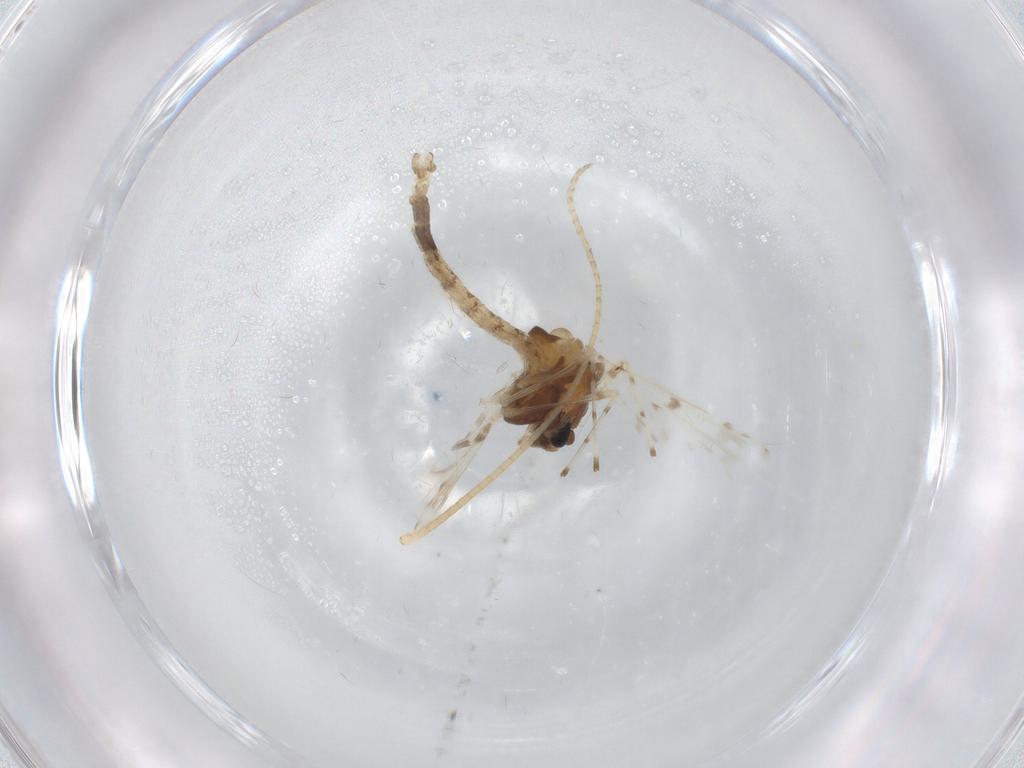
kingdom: Animalia
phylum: Arthropoda
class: Insecta
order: Diptera
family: Chironomidae
